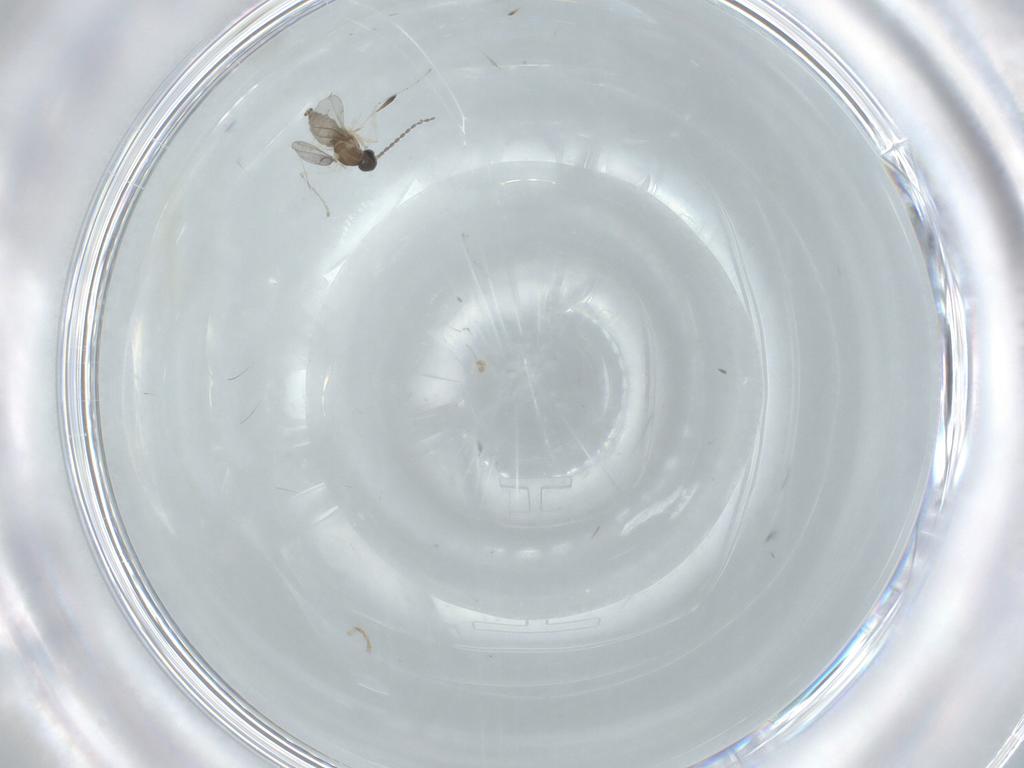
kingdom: Animalia
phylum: Arthropoda
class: Insecta
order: Diptera
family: Cecidomyiidae
